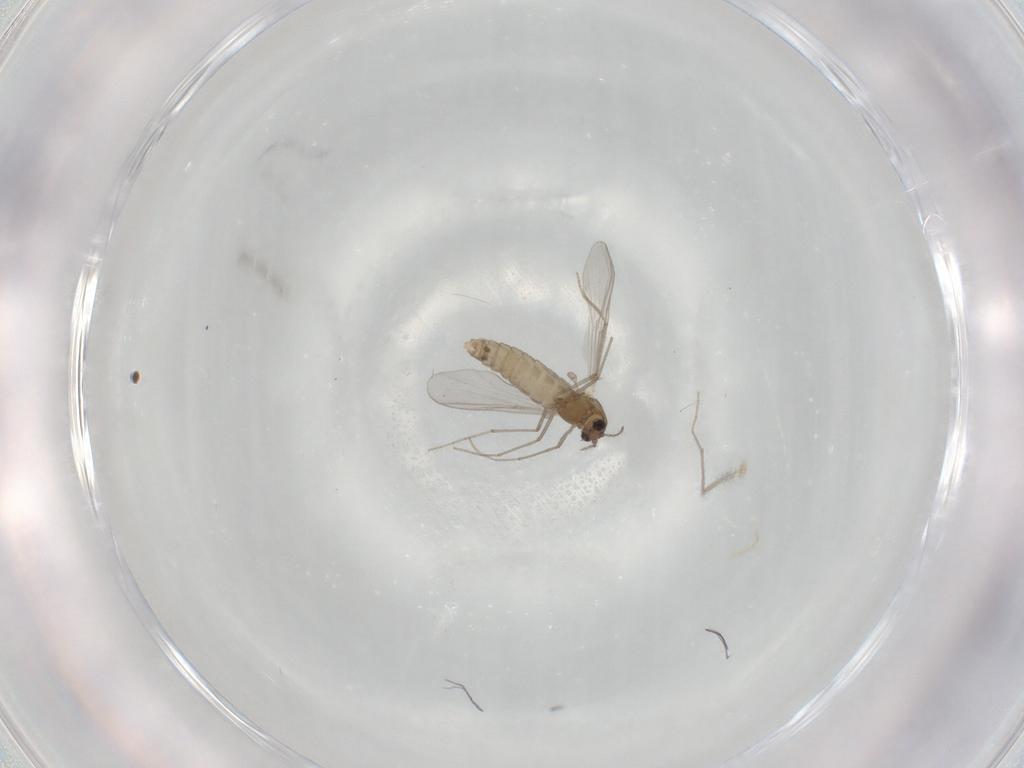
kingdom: Animalia
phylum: Arthropoda
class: Insecta
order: Diptera
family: Chironomidae
